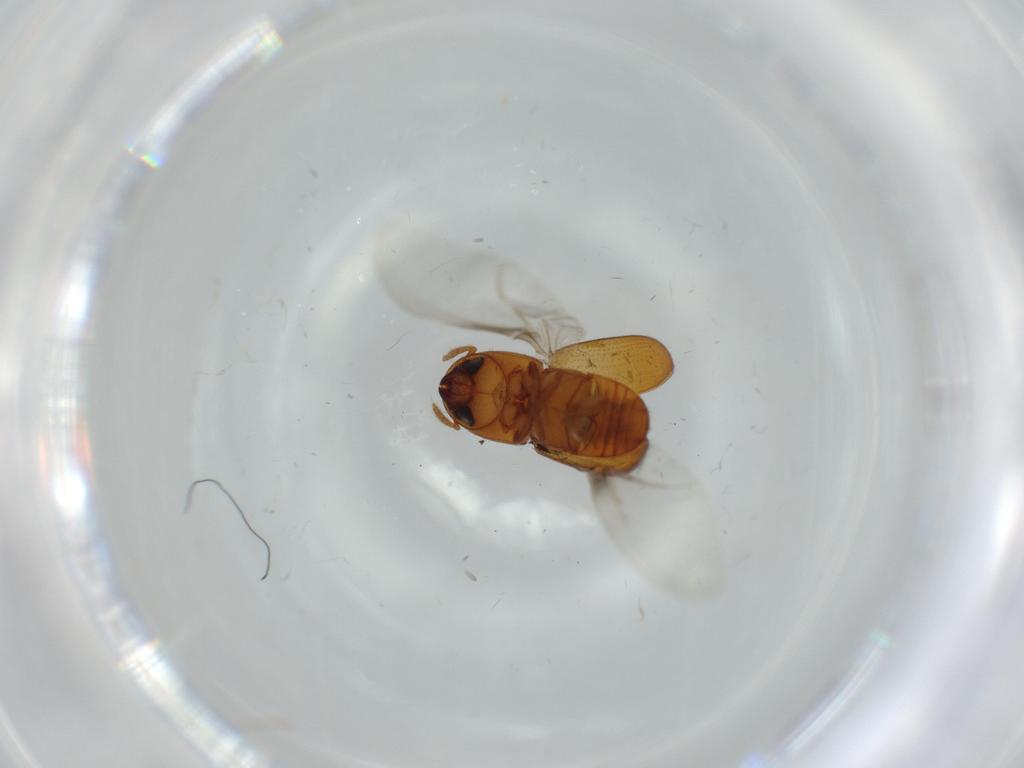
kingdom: Animalia
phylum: Arthropoda
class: Insecta
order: Coleoptera
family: Curculionidae
